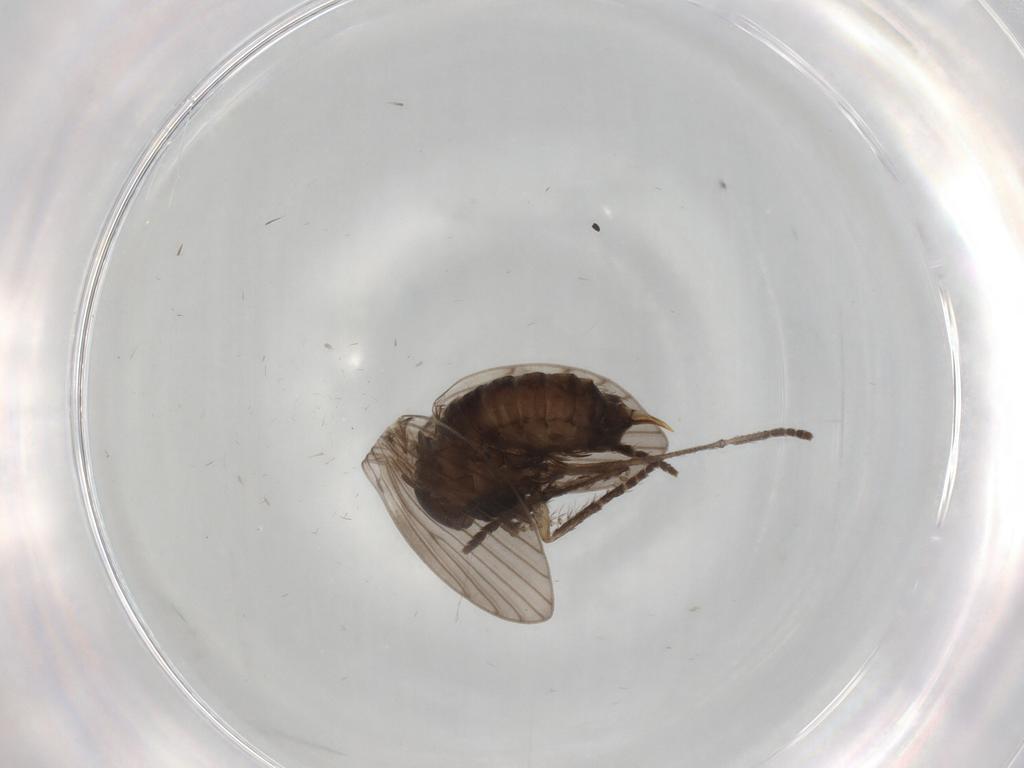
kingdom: Animalia
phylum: Arthropoda
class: Insecta
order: Diptera
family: Psychodidae
